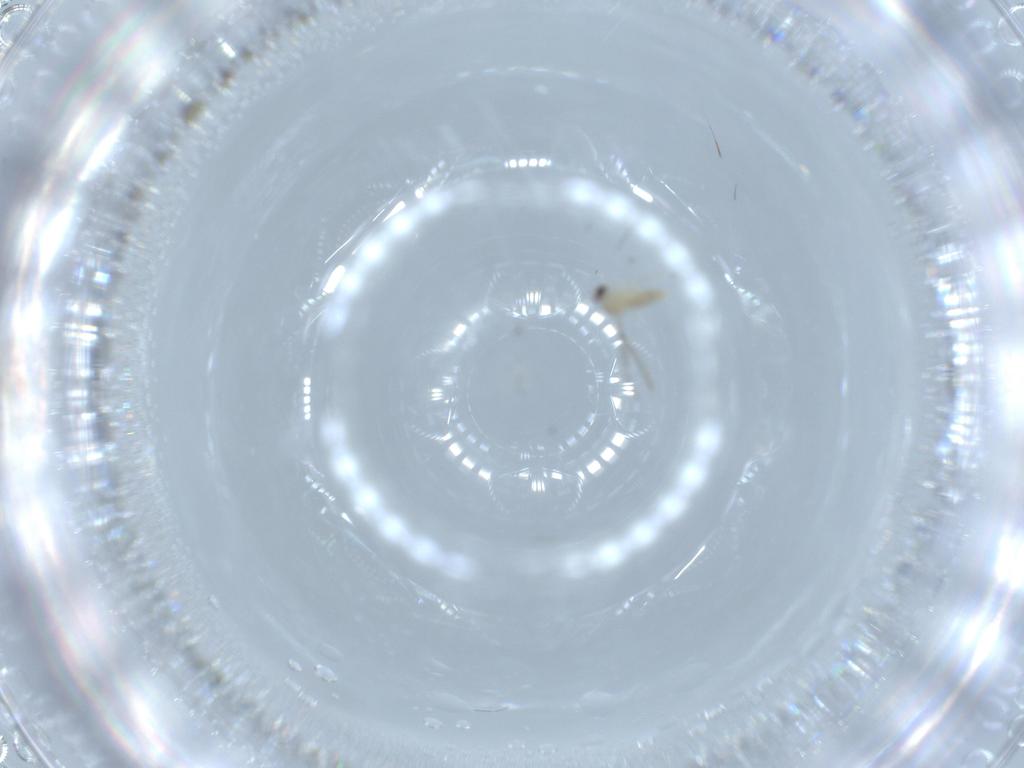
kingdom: Animalia
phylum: Arthropoda
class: Insecta
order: Diptera
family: Cecidomyiidae
